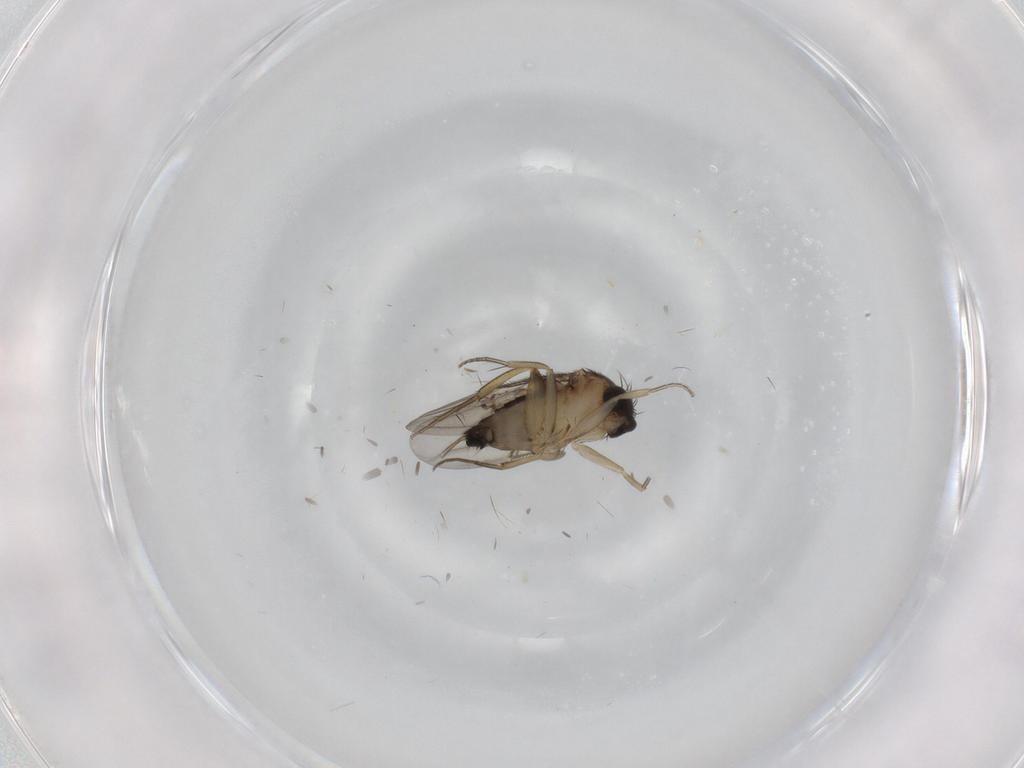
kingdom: Animalia
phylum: Arthropoda
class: Insecta
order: Diptera
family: Phoridae
